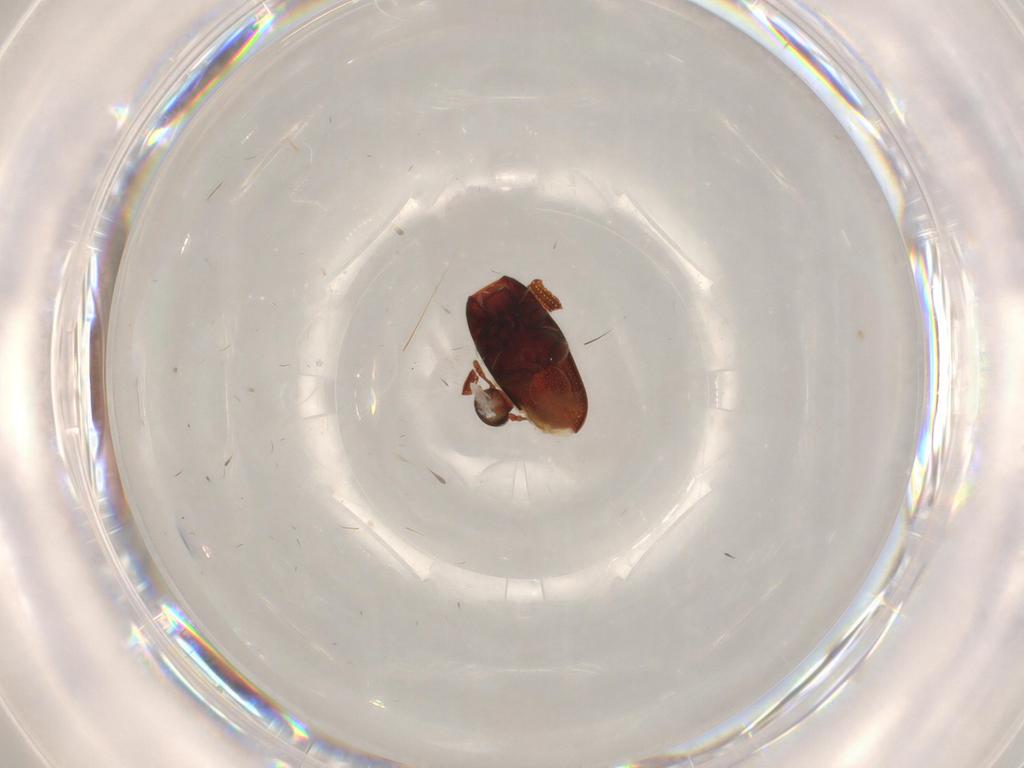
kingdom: Animalia
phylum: Arthropoda
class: Insecta
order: Coleoptera
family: Throscidae
